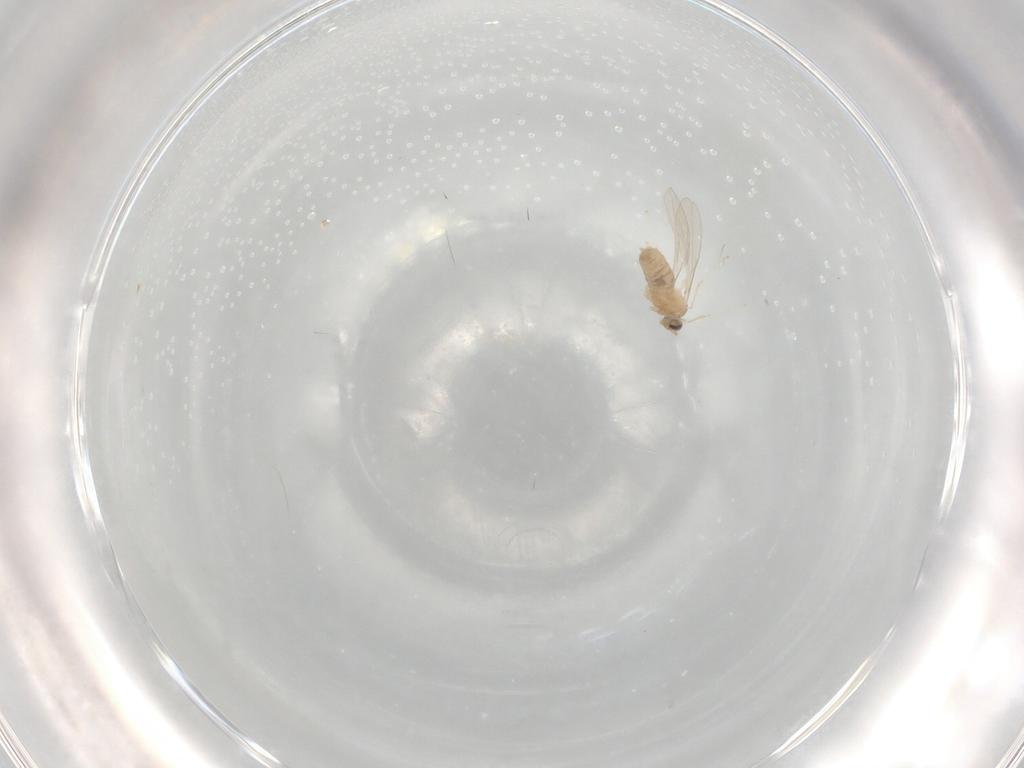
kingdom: Animalia
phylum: Arthropoda
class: Insecta
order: Diptera
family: Cecidomyiidae
